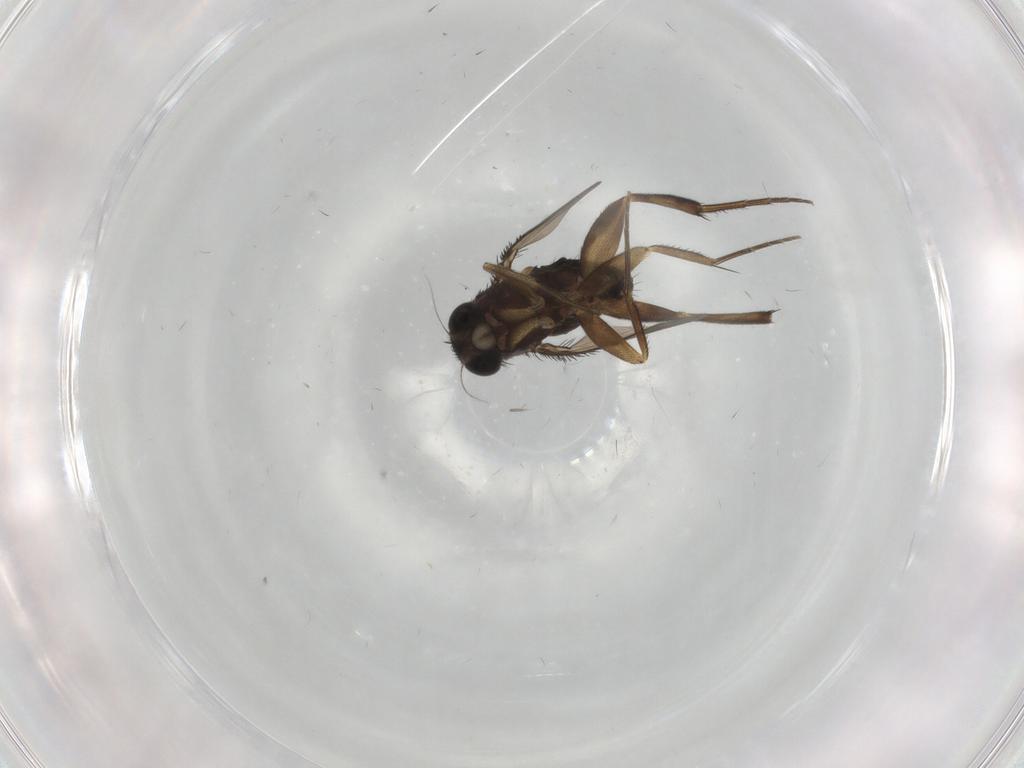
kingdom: Animalia
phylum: Arthropoda
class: Insecta
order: Diptera
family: Phoridae
